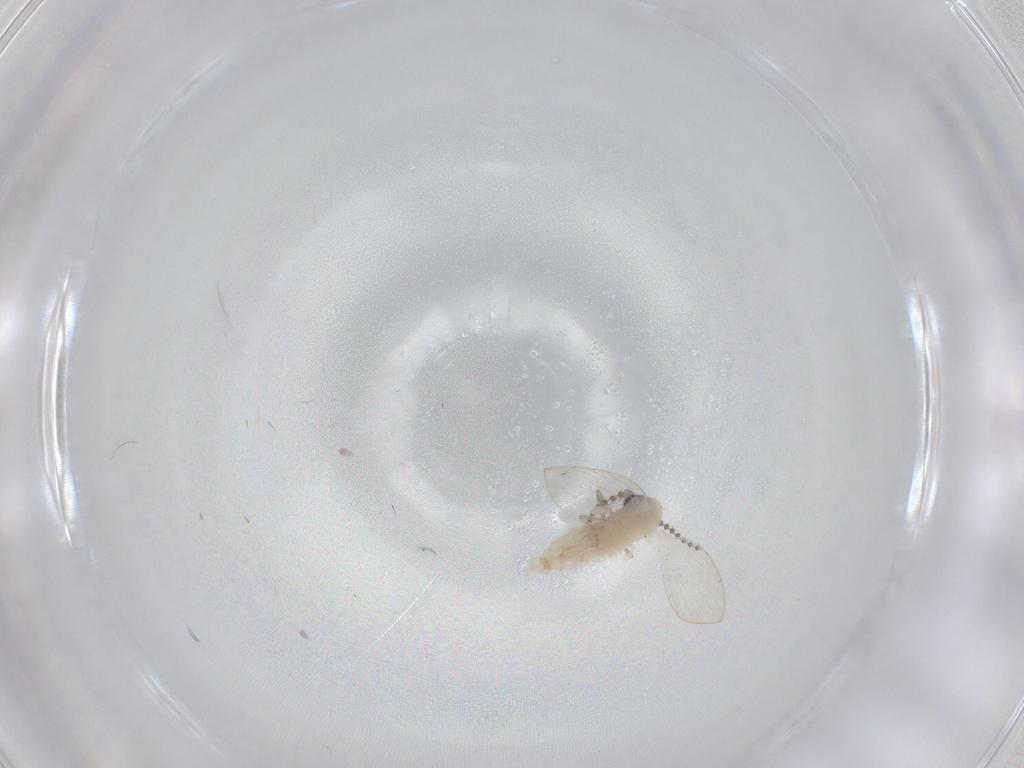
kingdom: Animalia
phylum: Arthropoda
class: Insecta
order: Diptera
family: Psychodidae
